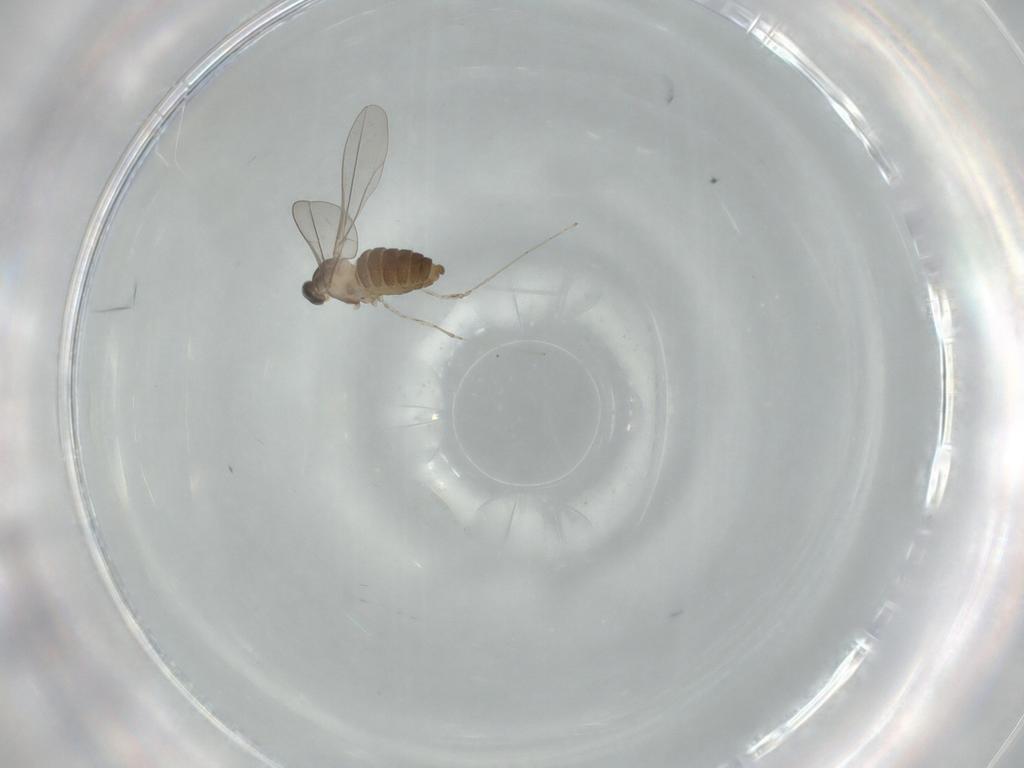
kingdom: Animalia
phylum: Arthropoda
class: Insecta
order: Diptera
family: Cecidomyiidae
